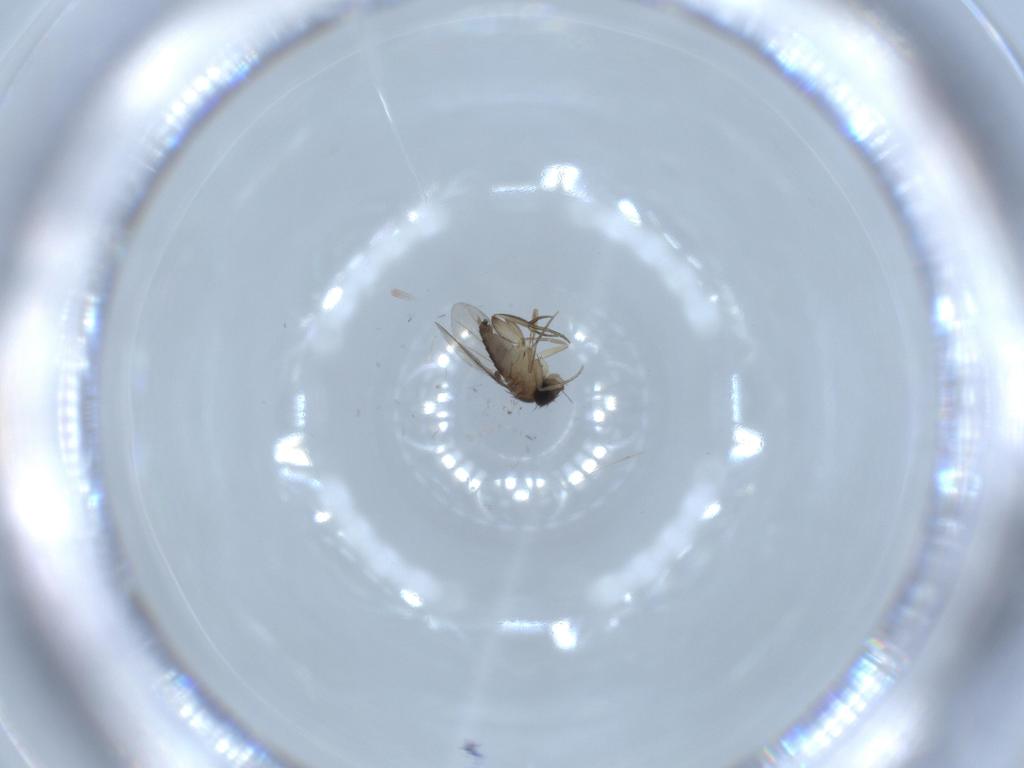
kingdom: Animalia
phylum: Arthropoda
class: Insecta
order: Diptera
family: Phoridae
